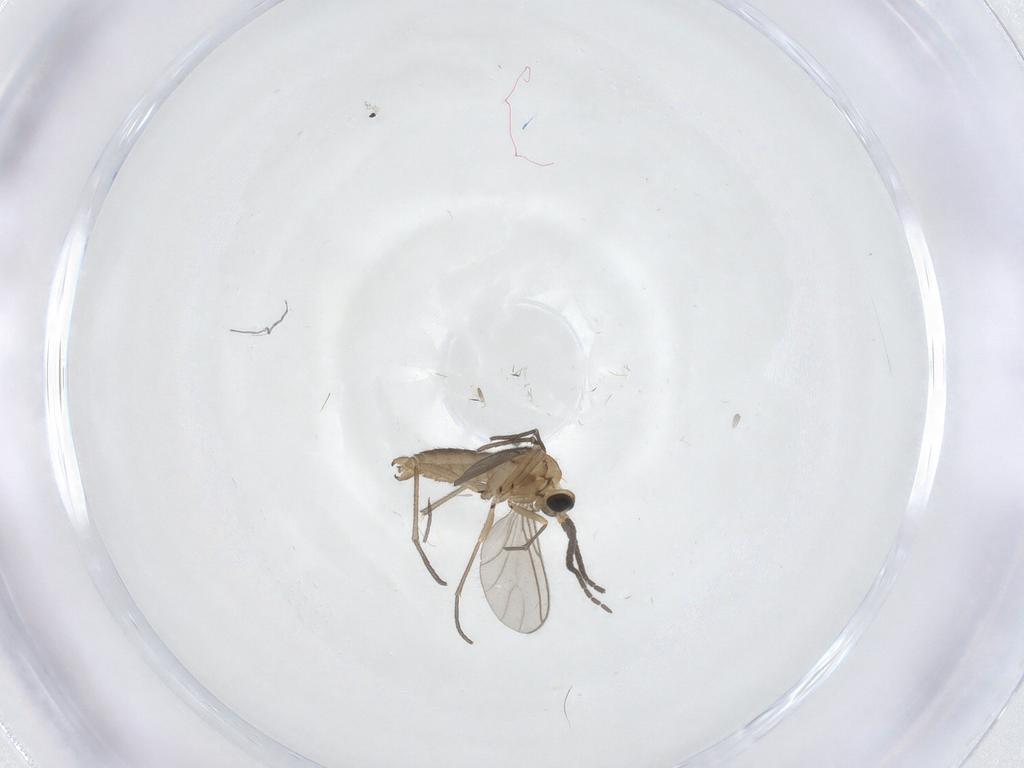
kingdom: Animalia
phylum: Arthropoda
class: Insecta
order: Diptera
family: Sciaridae
